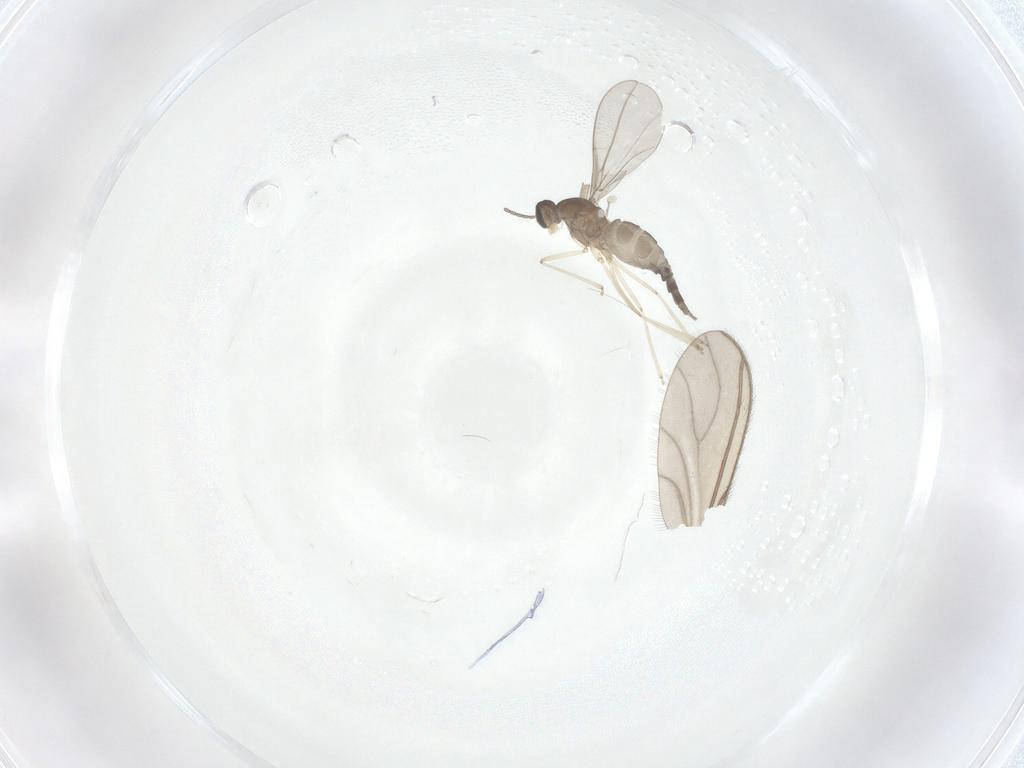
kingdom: Animalia
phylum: Arthropoda
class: Insecta
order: Diptera
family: Sciaridae
